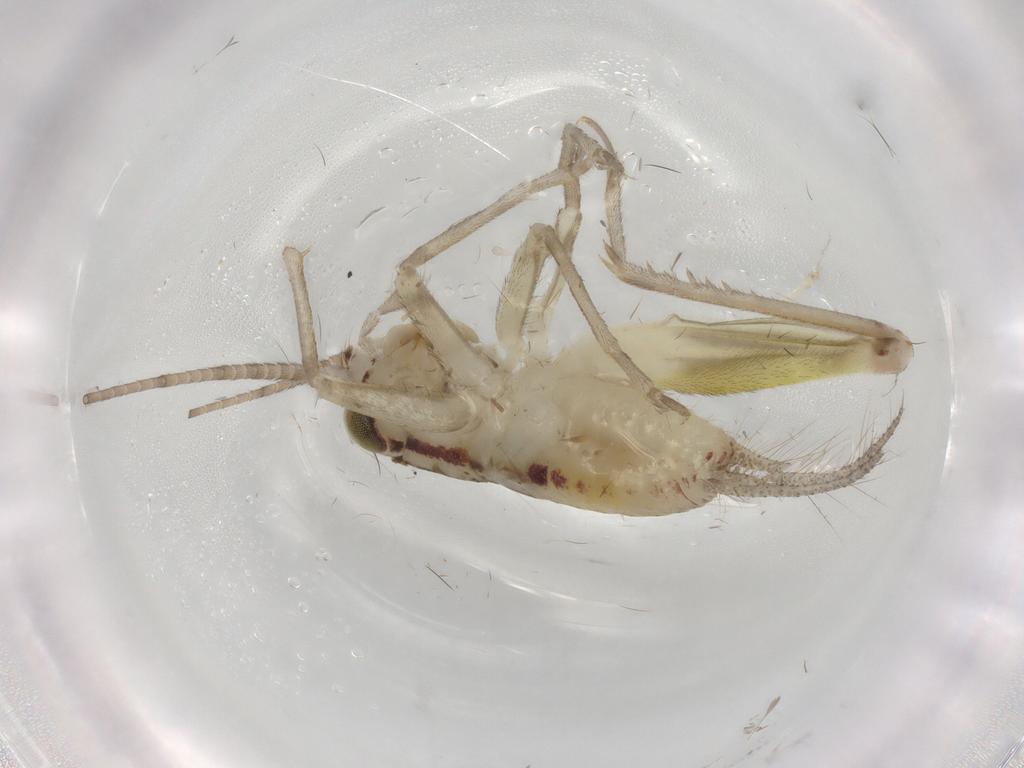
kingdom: Animalia
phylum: Arthropoda
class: Insecta
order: Orthoptera
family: Trigonidiidae
